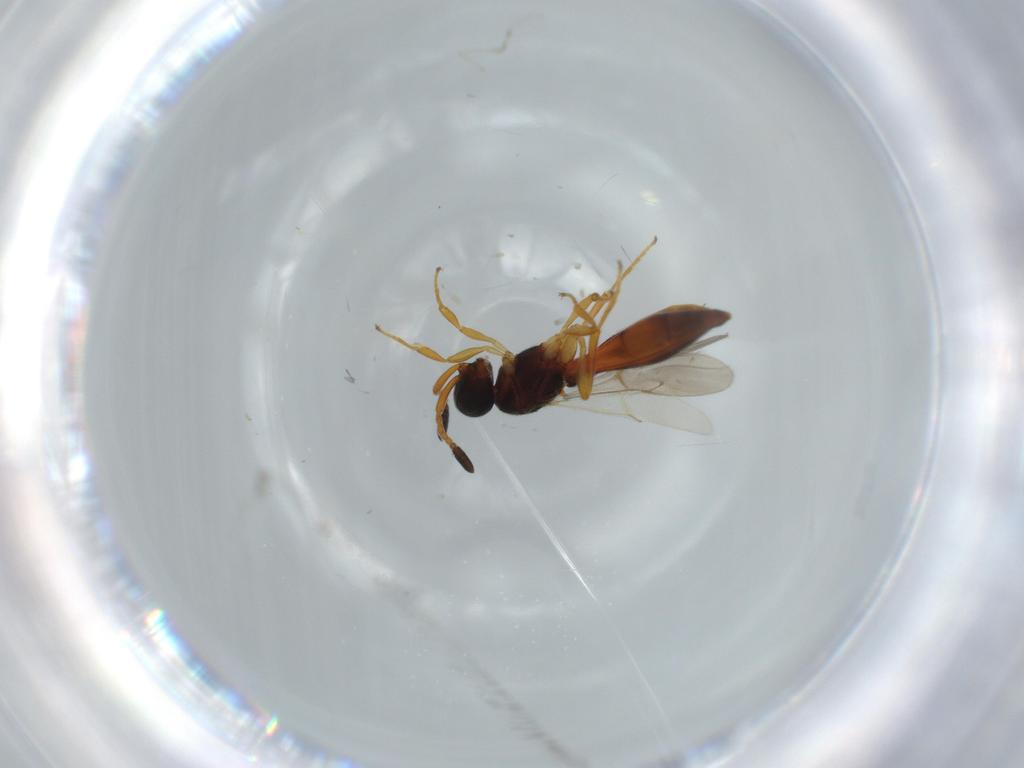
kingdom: Animalia
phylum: Arthropoda
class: Insecta
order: Hymenoptera
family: Scelionidae
